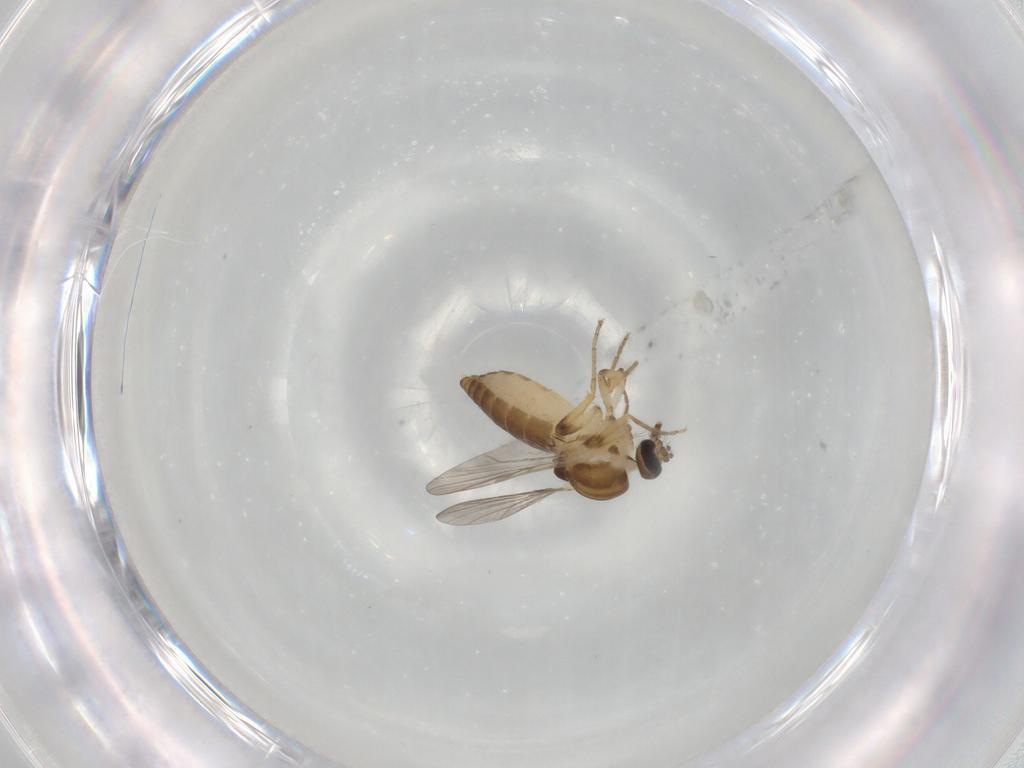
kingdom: Animalia
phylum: Arthropoda
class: Insecta
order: Diptera
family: Ceratopogonidae
